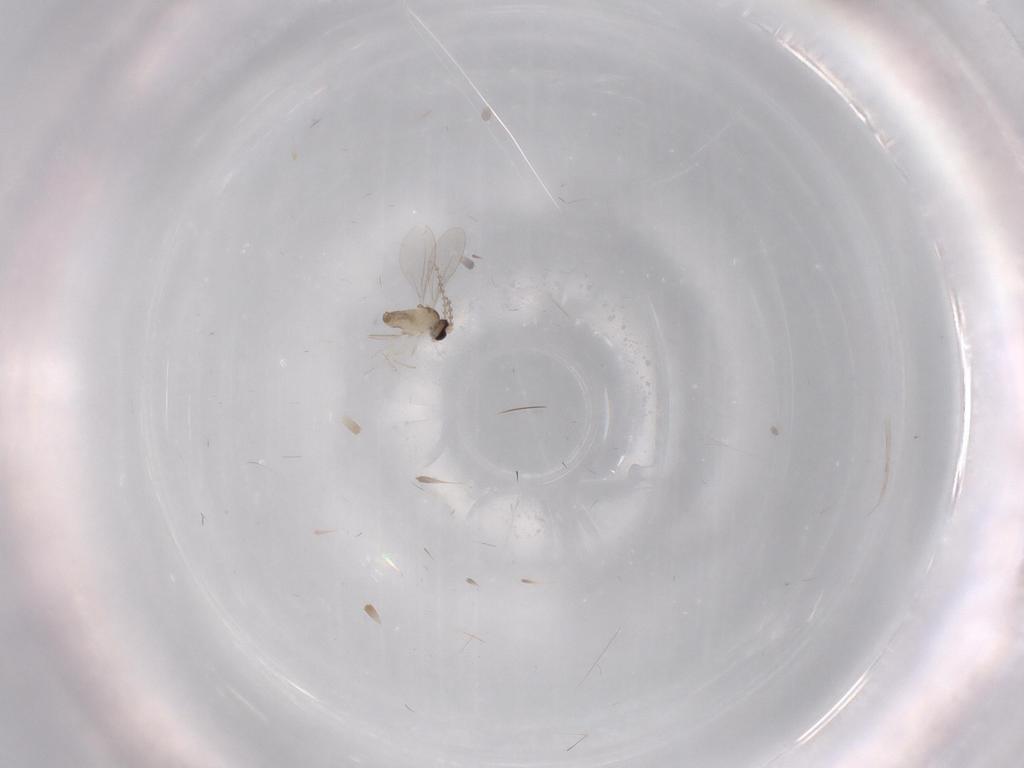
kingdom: Animalia
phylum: Arthropoda
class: Insecta
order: Diptera
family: Cecidomyiidae
